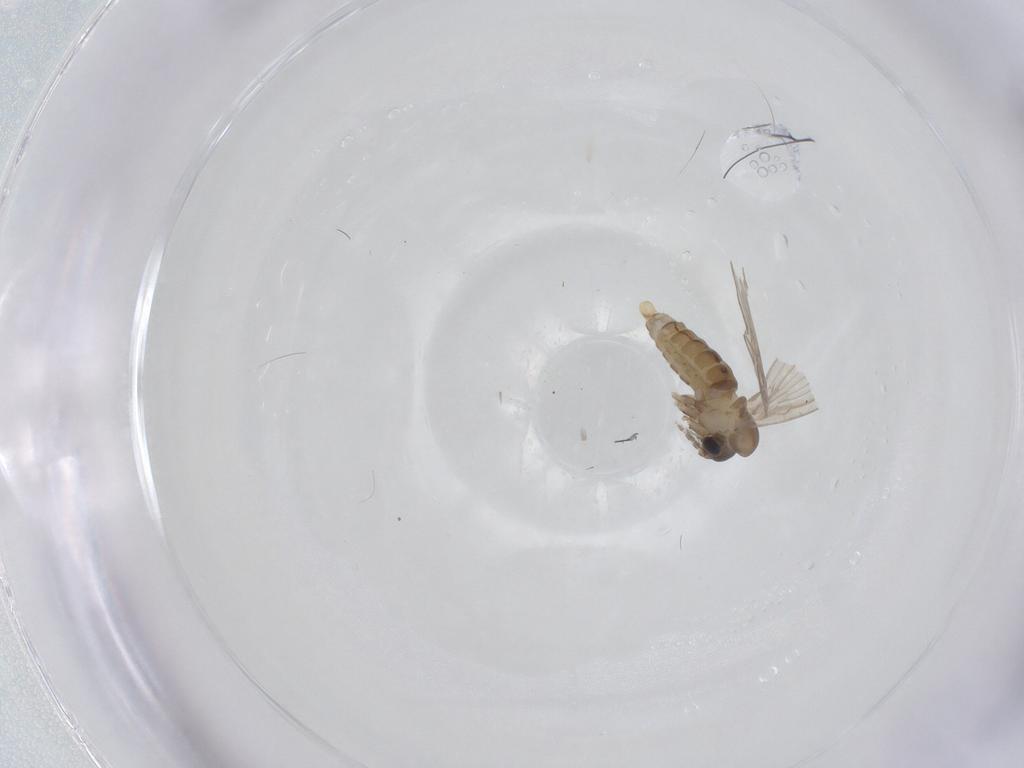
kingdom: Animalia
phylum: Arthropoda
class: Insecta
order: Diptera
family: Psychodidae
